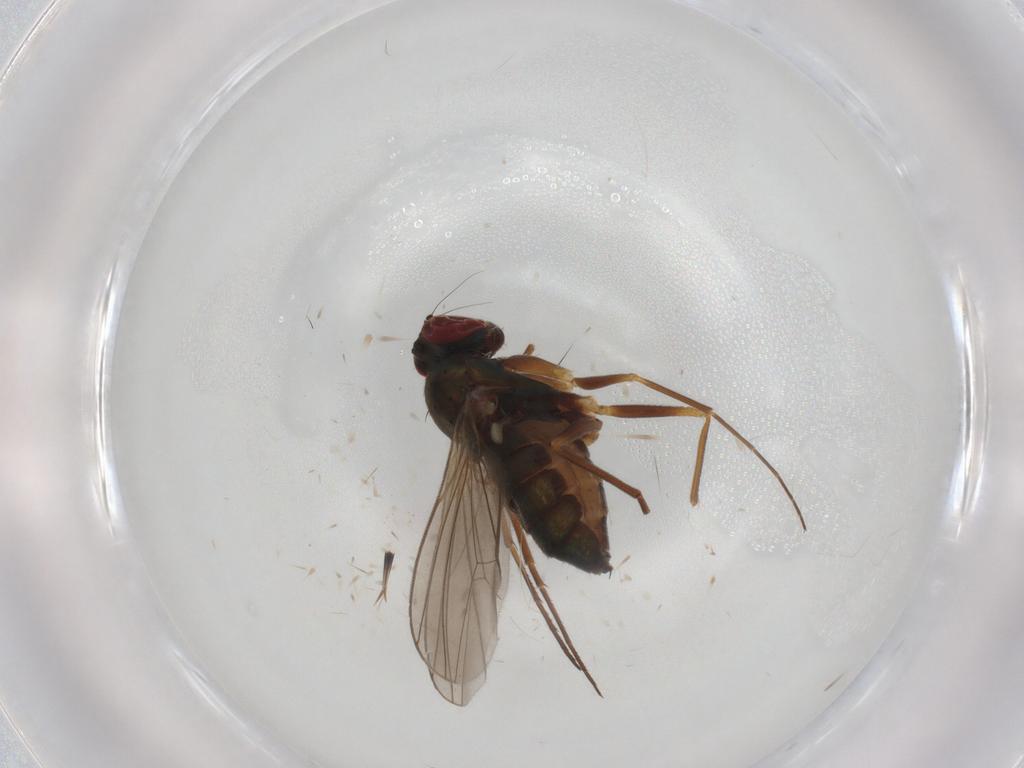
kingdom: Animalia
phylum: Arthropoda
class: Insecta
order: Diptera
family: Dolichopodidae
